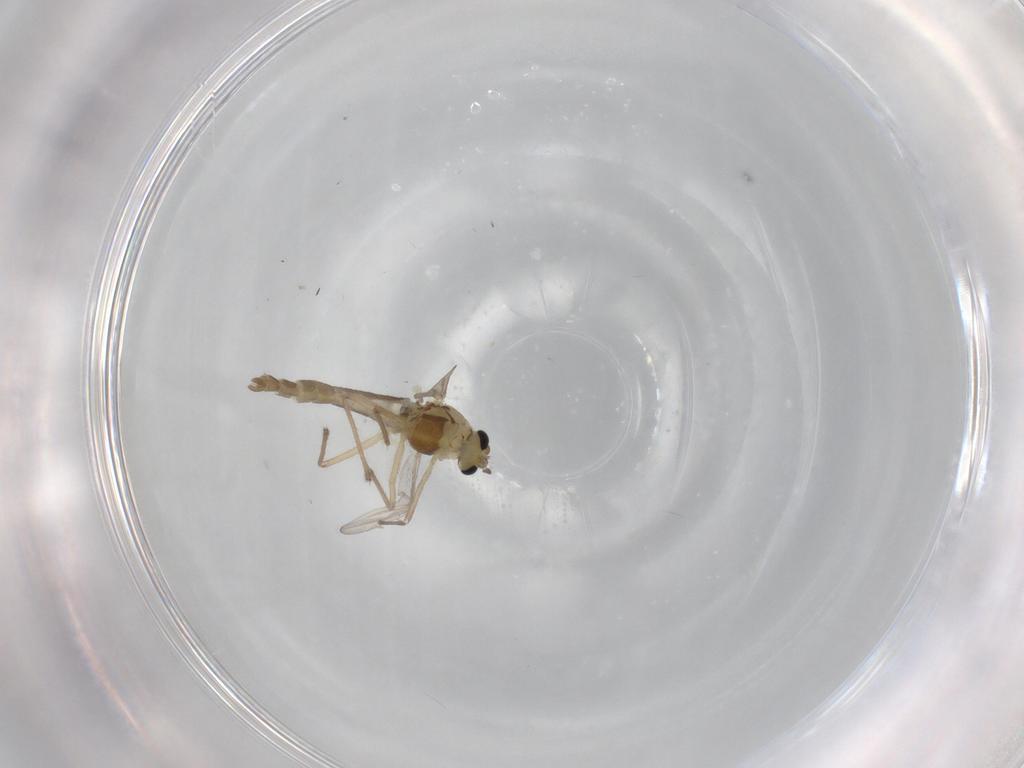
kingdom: Animalia
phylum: Arthropoda
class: Insecta
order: Diptera
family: Chironomidae
